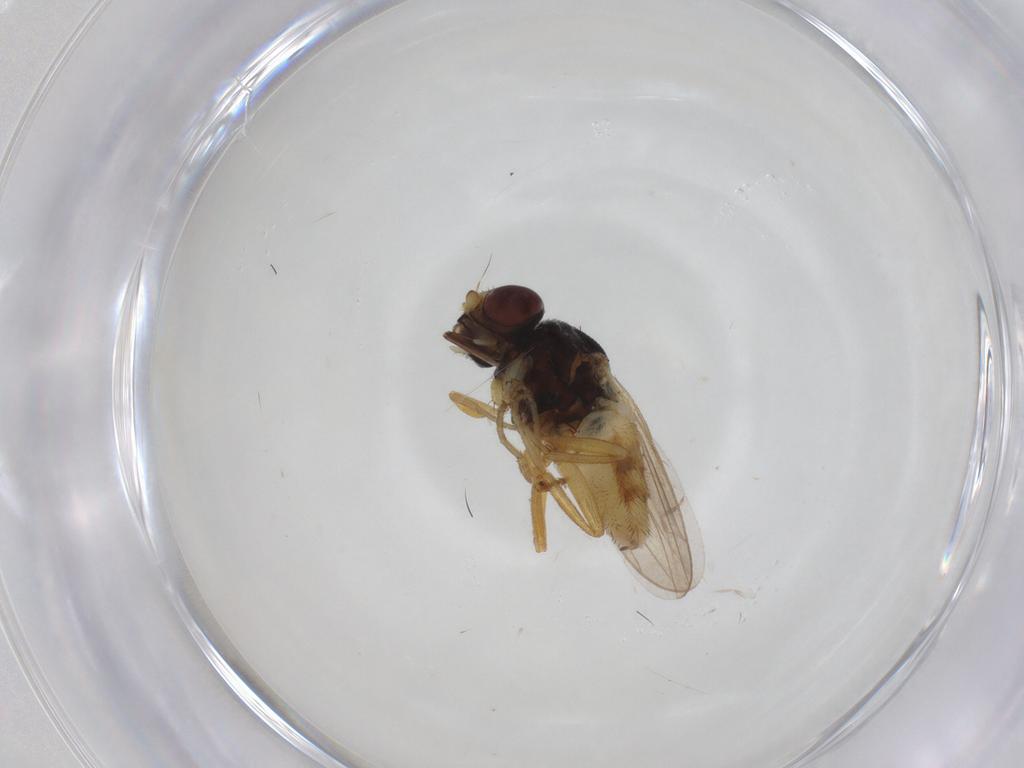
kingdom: Animalia
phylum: Arthropoda
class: Insecta
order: Diptera
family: Chloropidae
